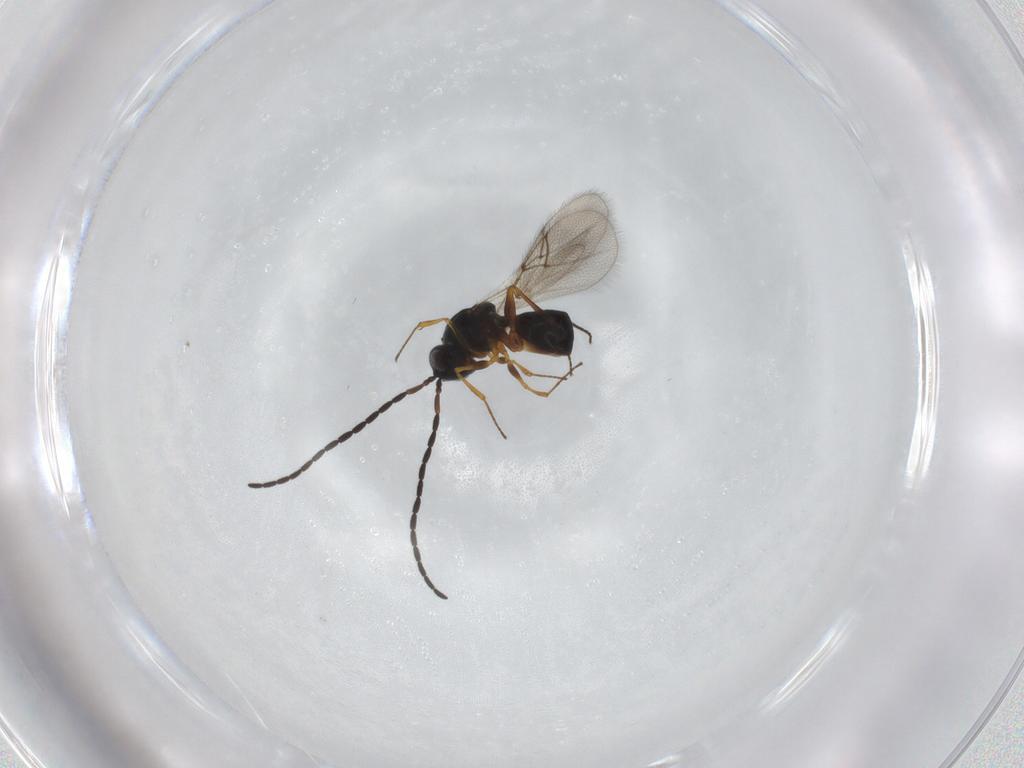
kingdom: Animalia
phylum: Arthropoda
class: Insecta
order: Hymenoptera
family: Figitidae
